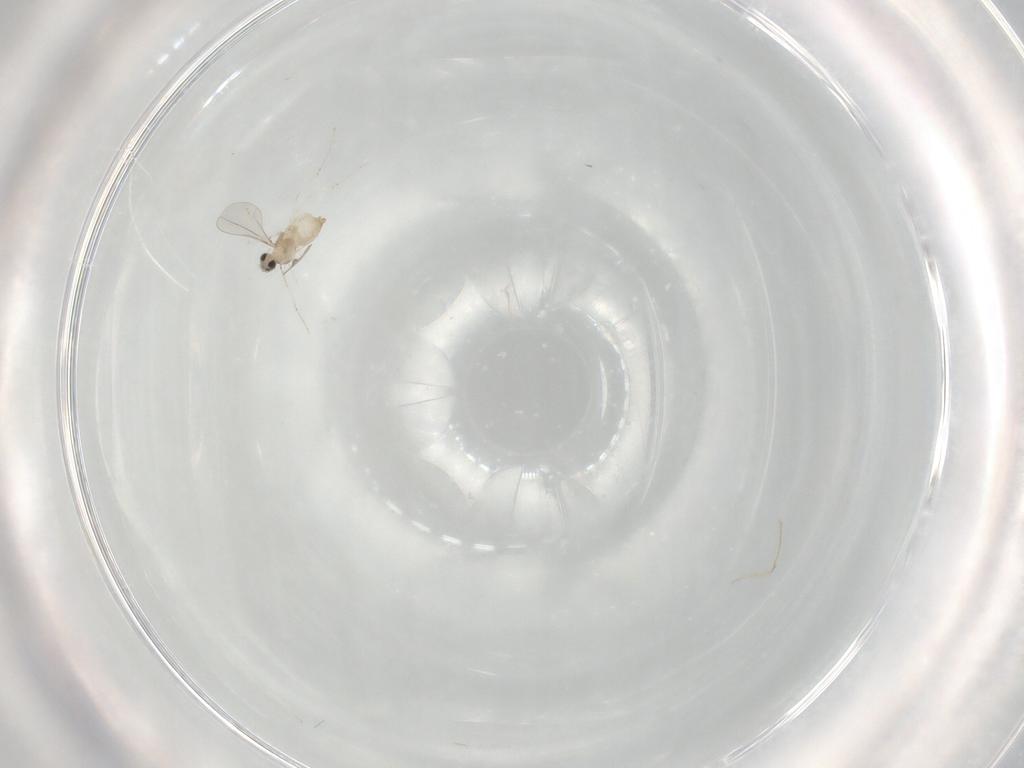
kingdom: Animalia
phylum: Arthropoda
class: Insecta
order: Diptera
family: Cecidomyiidae
